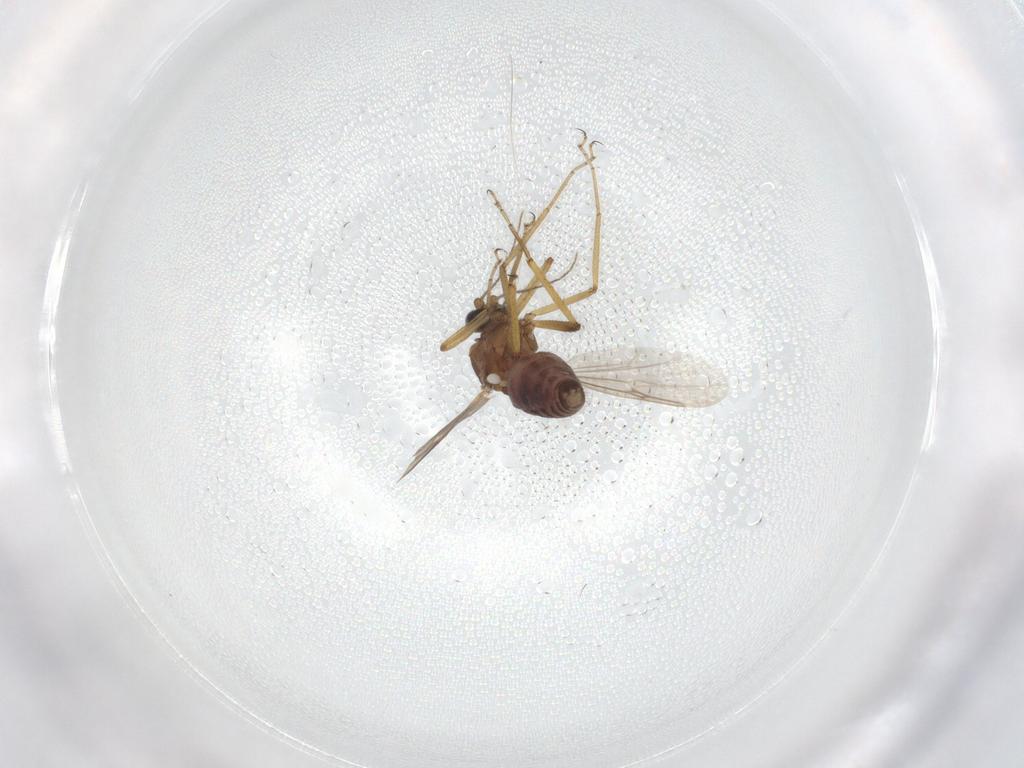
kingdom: Animalia
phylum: Arthropoda
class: Insecta
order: Diptera
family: Ceratopogonidae
